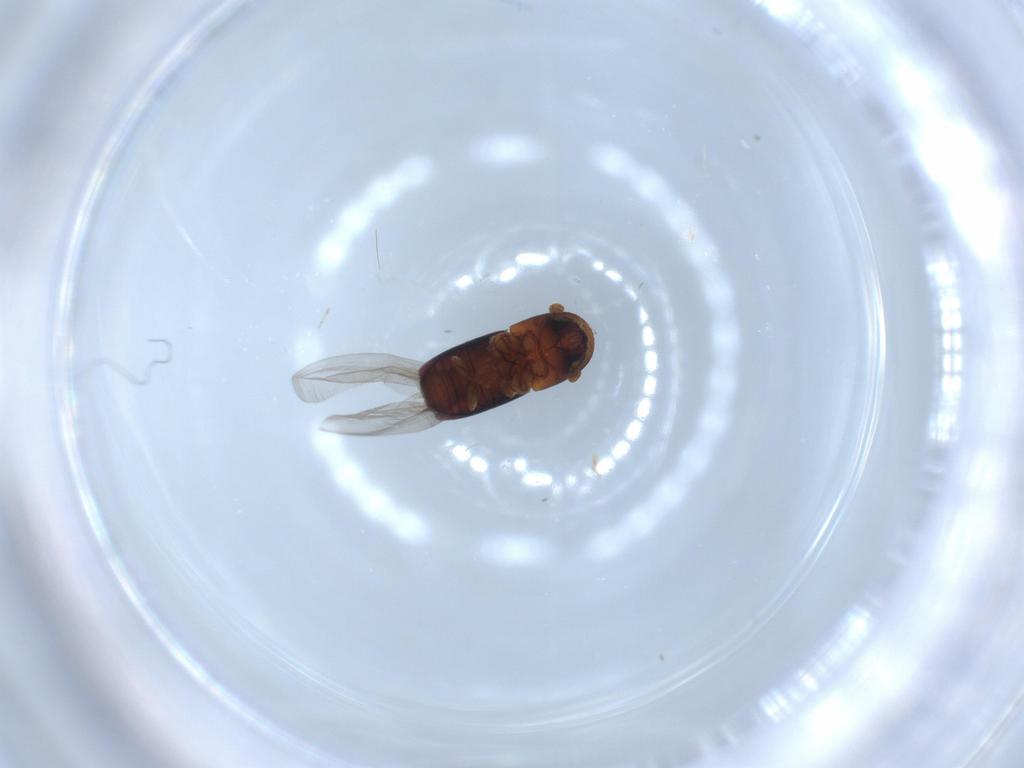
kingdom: Animalia
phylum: Arthropoda
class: Insecta
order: Coleoptera
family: Curculionidae
